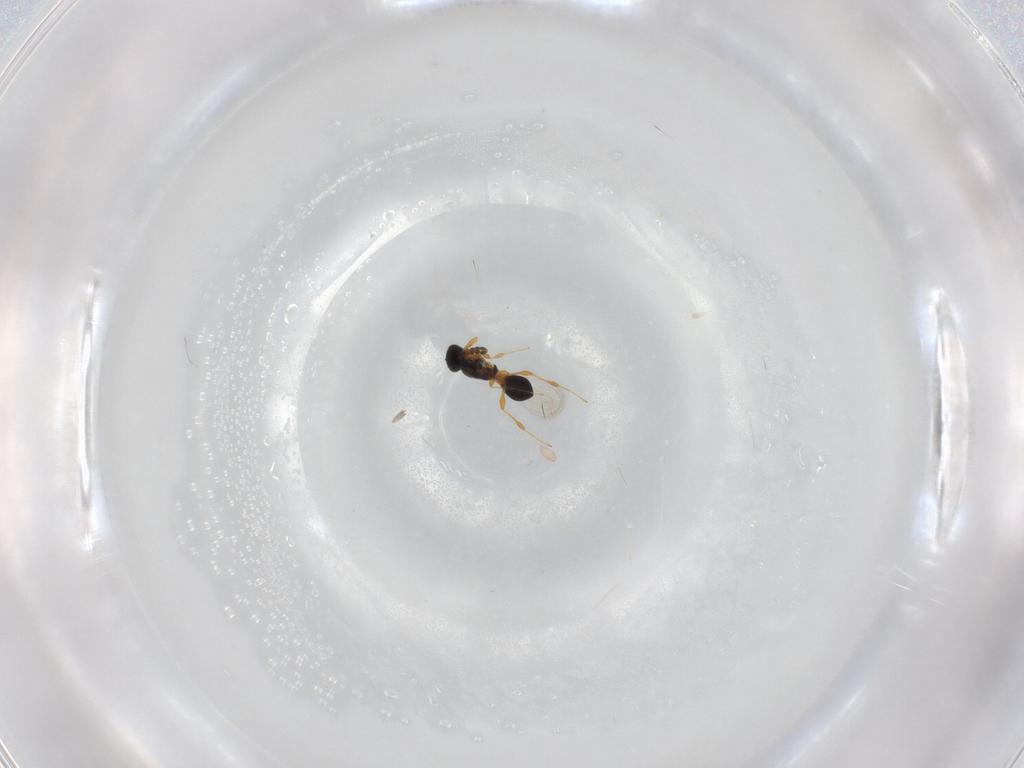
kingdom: Animalia
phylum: Arthropoda
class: Insecta
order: Hymenoptera
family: Platygastridae
